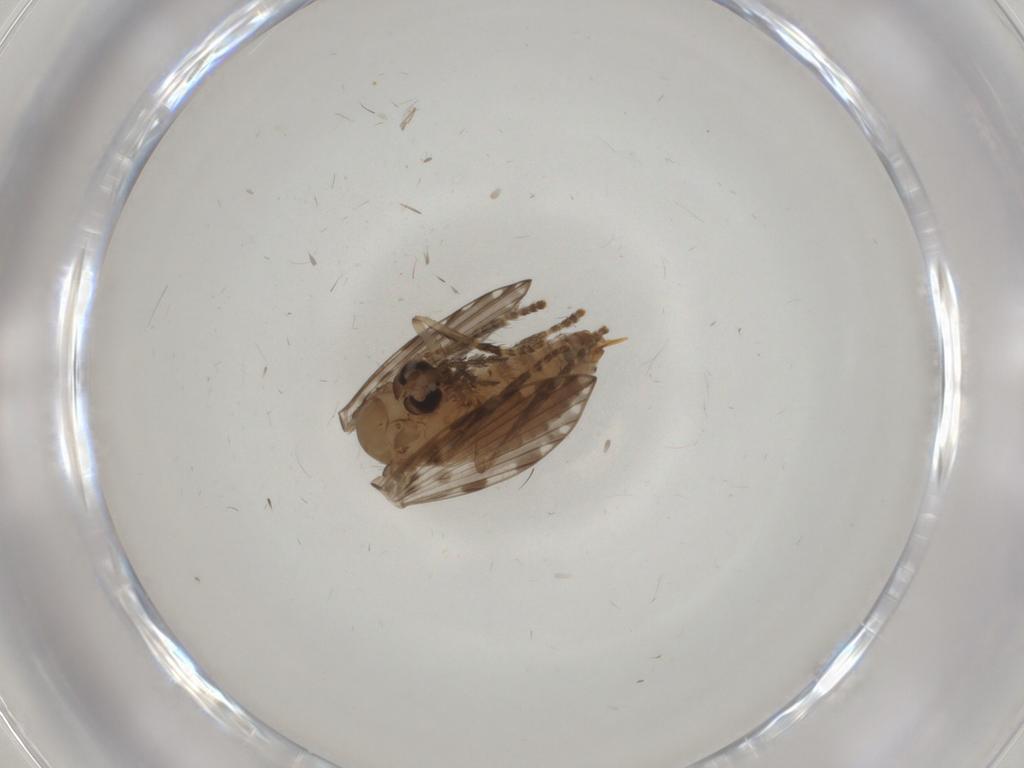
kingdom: Animalia
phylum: Arthropoda
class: Insecta
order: Diptera
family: Psychodidae
